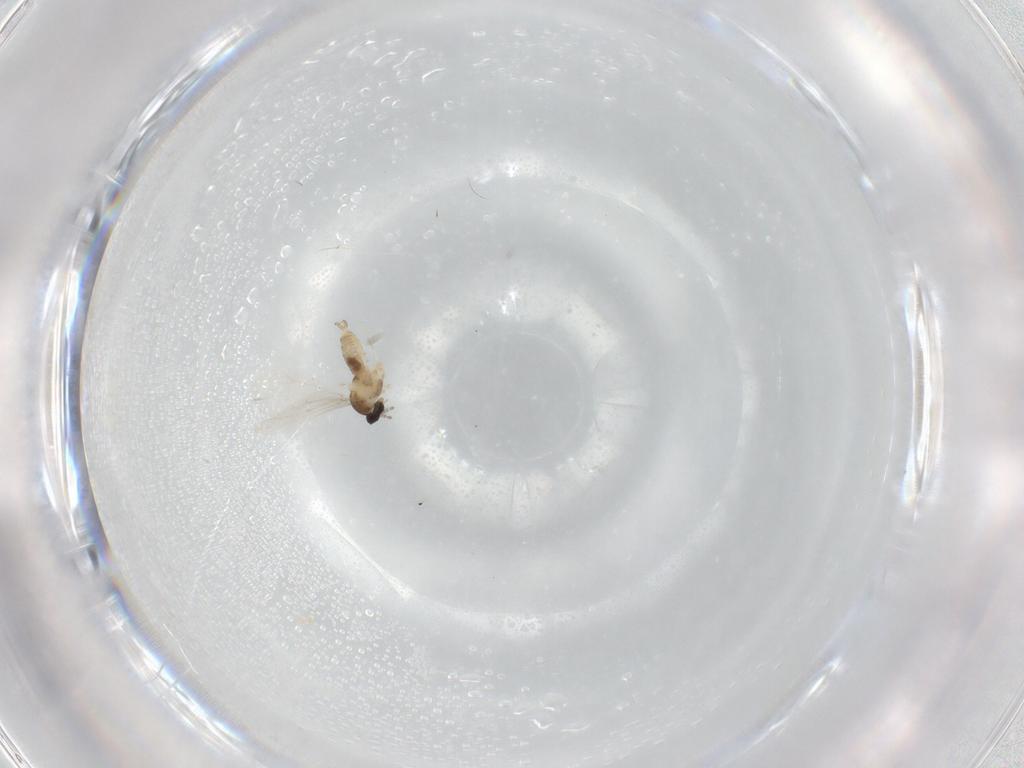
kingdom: Animalia
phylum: Arthropoda
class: Insecta
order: Diptera
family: Cecidomyiidae
